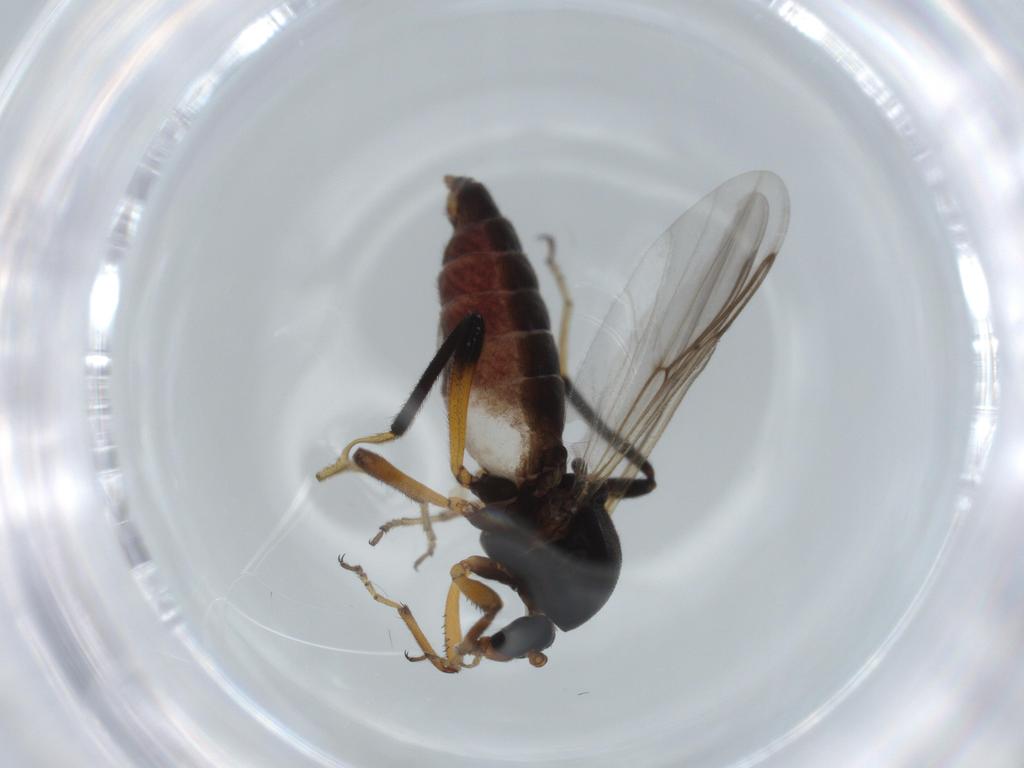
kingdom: Animalia
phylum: Arthropoda
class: Insecta
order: Diptera
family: Ceratopogonidae
